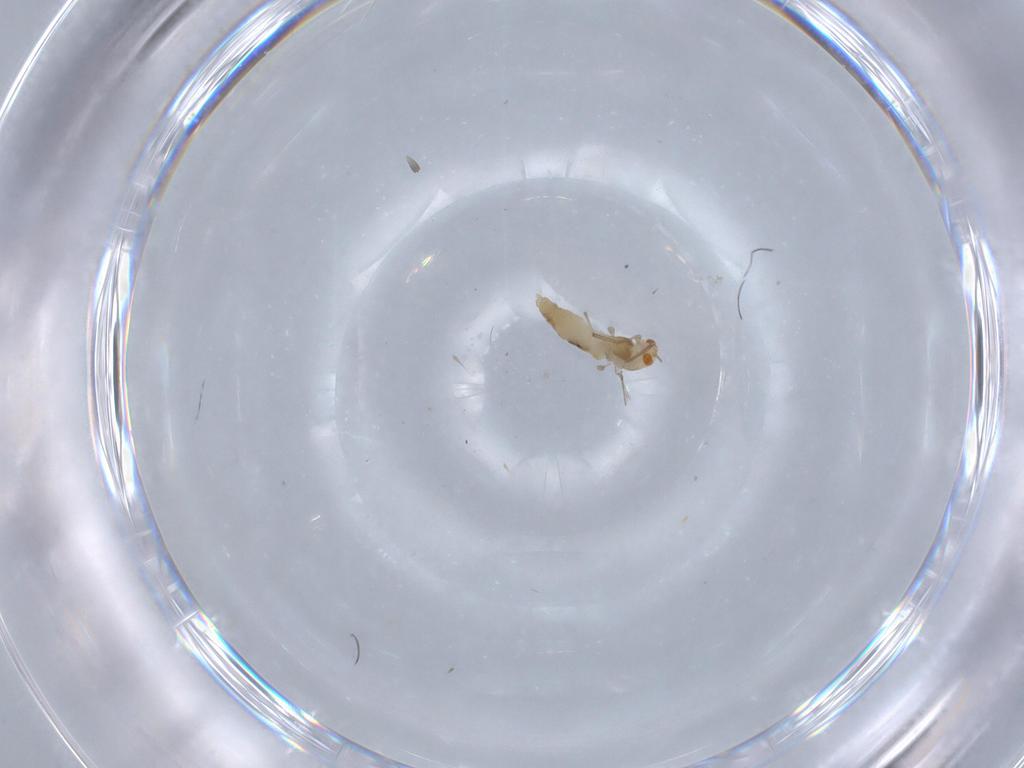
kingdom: Animalia
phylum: Arthropoda
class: Insecta
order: Diptera
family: Chironomidae
